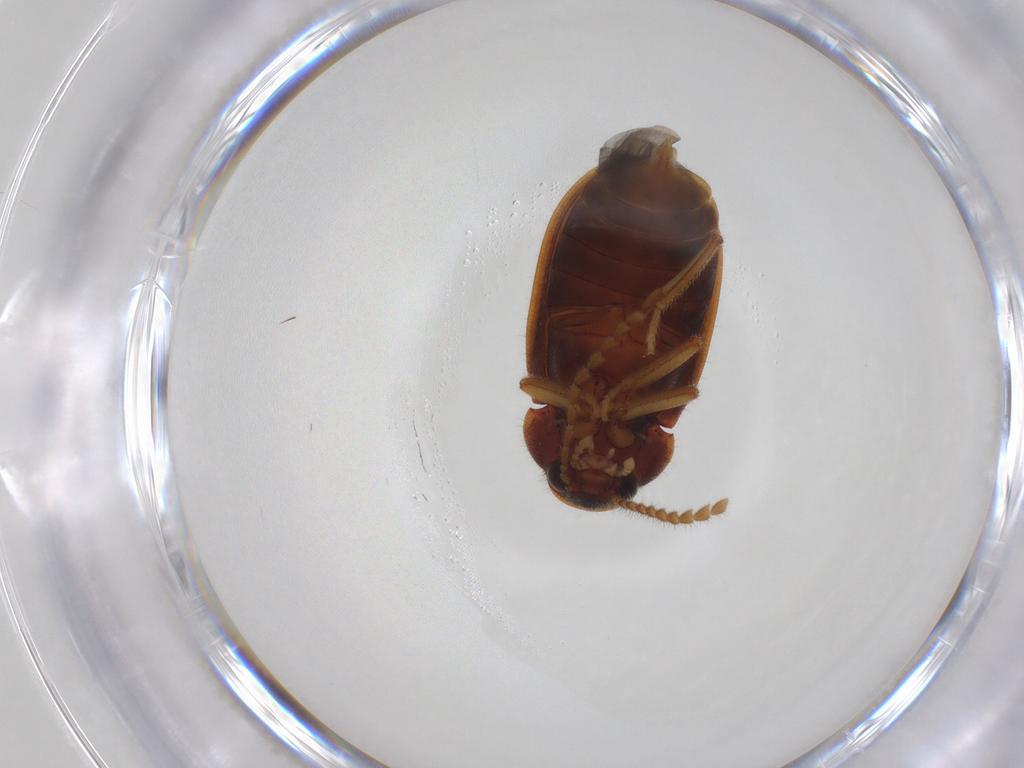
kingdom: Animalia
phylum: Arthropoda
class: Insecta
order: Coleoptera
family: Ptilodactylidae
